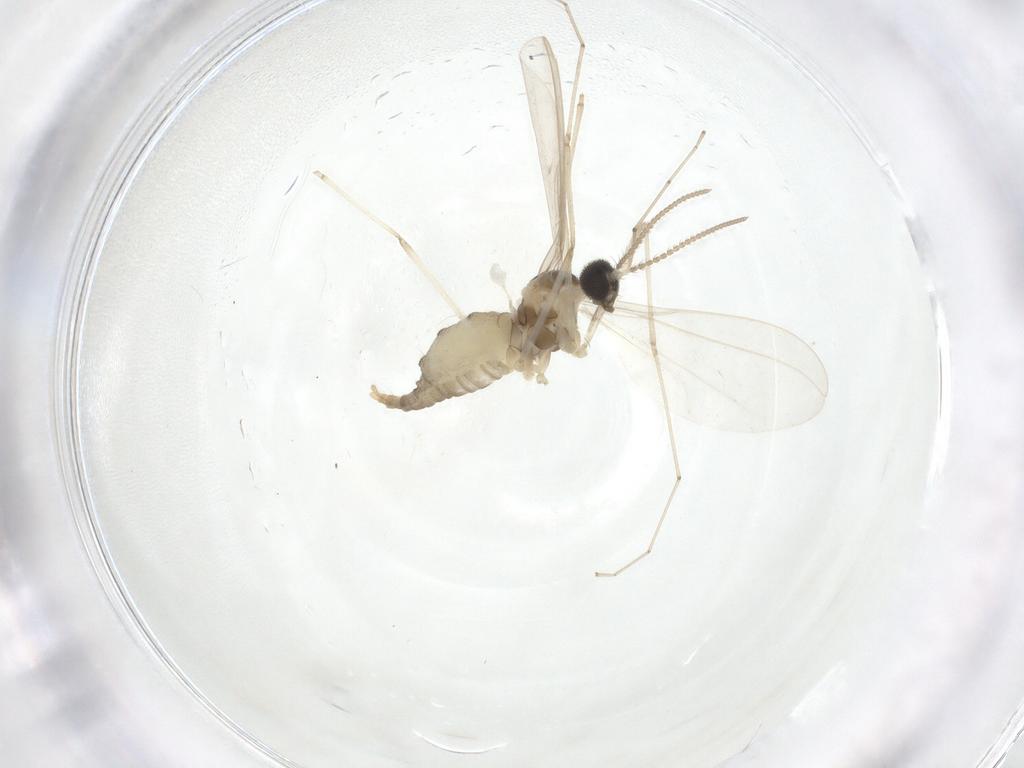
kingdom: Animalia
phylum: Arthropoda
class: Insecta
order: Diptera
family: Cecidomyiidae
